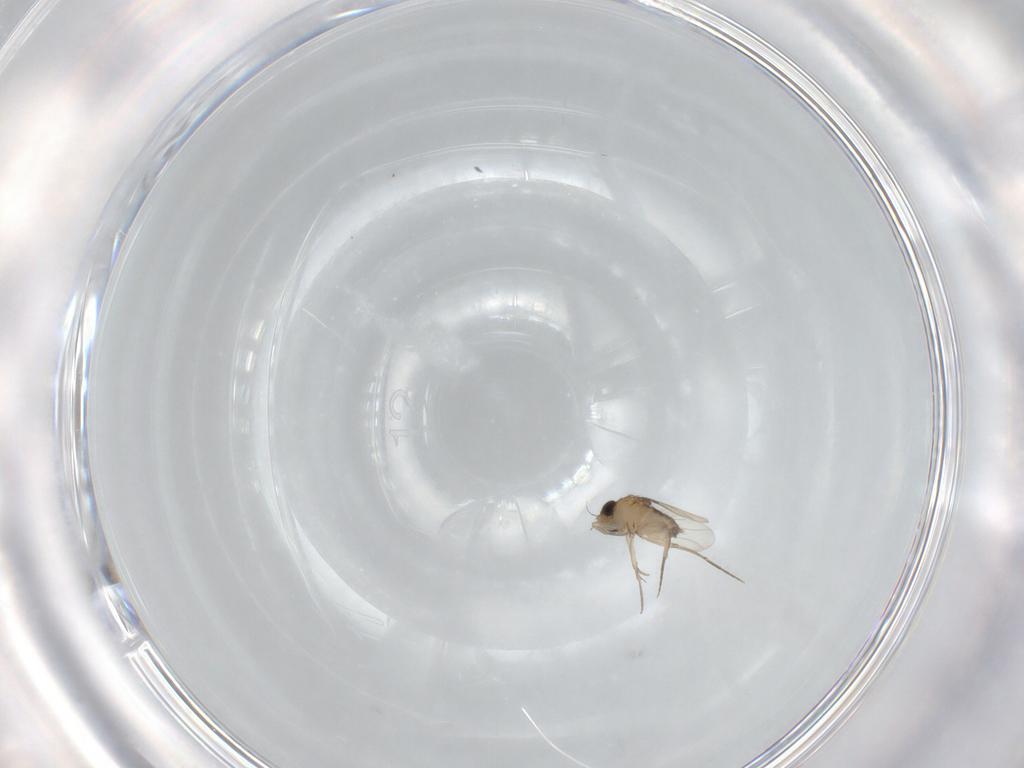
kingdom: Animalia
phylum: Arthropoda
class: Insecta
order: Diptera
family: Phoridae
